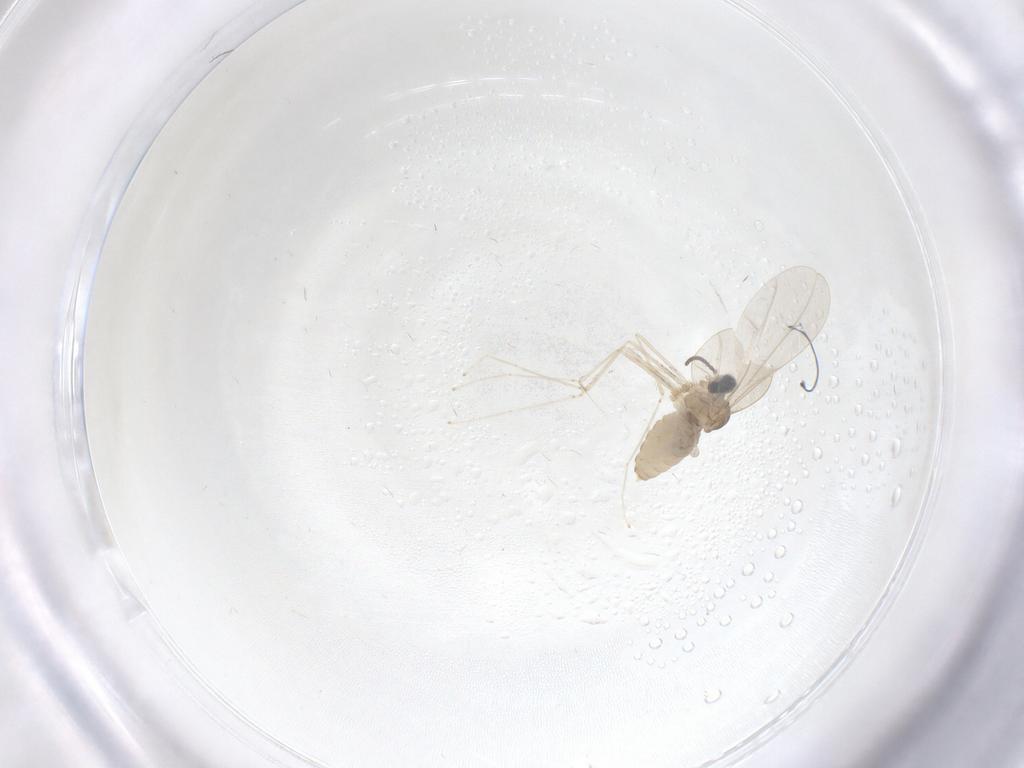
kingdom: Animalia
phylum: Arthropoda
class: Insecta
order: Diptera
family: Cecidomyiidae
